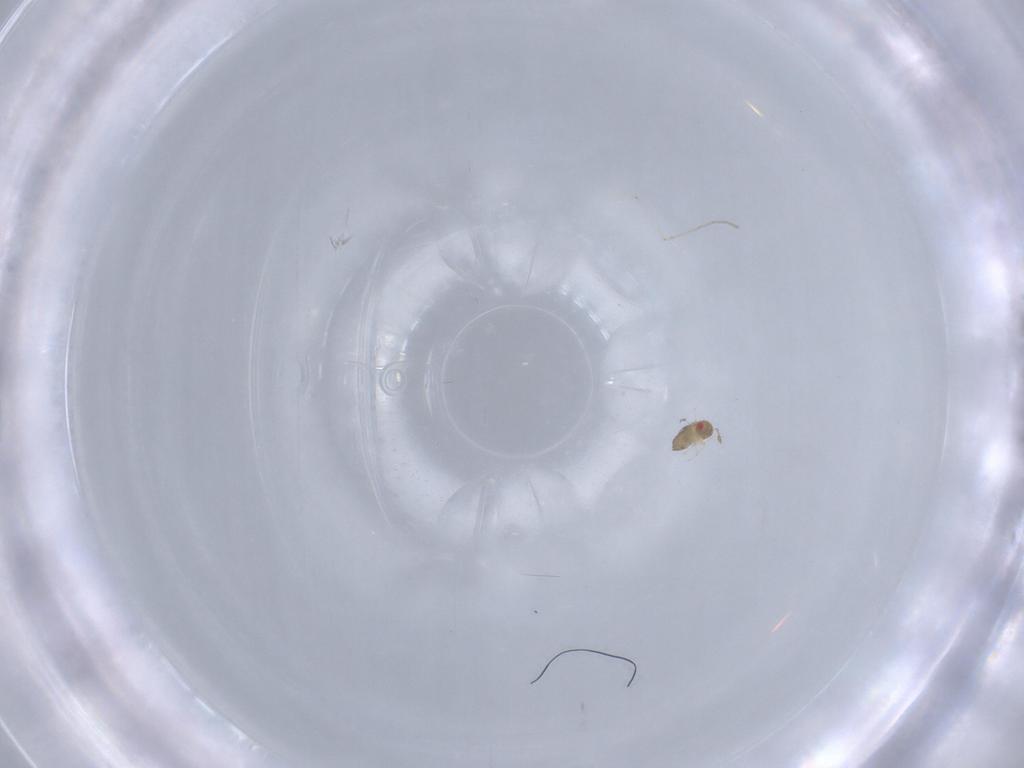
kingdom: Animalia
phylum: Arthropoda
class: Insecta
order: Hymenoptera
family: Trichogrammatidae
